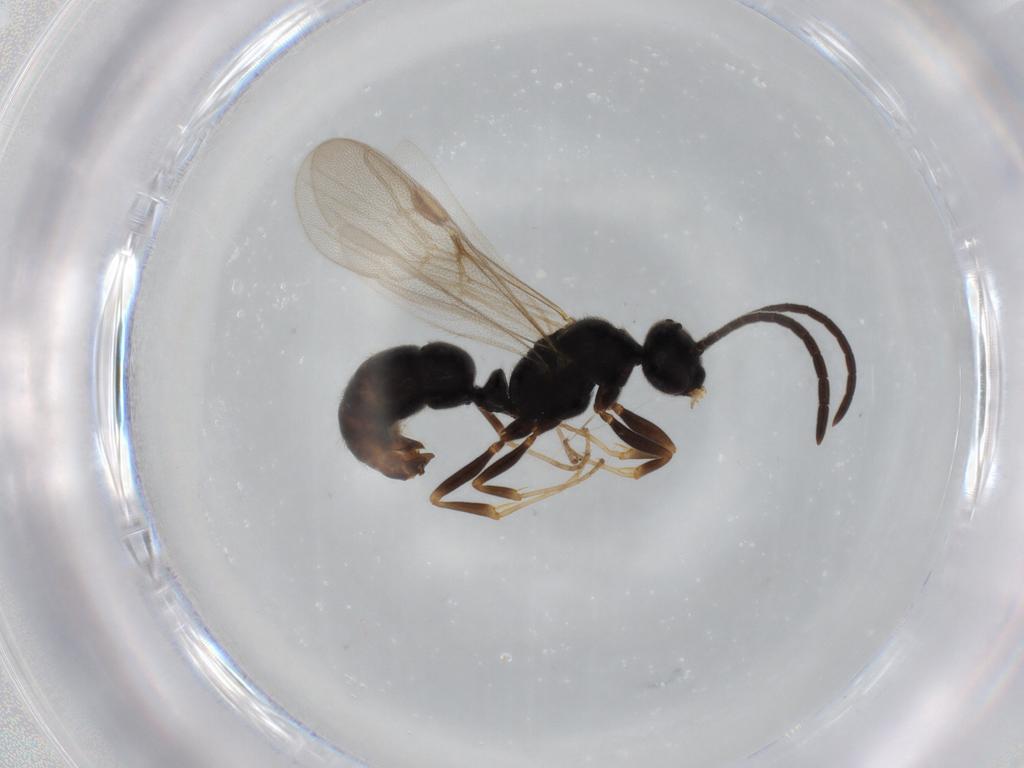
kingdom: Animalia
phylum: Arthropoda
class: Insecta
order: Hymenoptera
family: Formicidae
